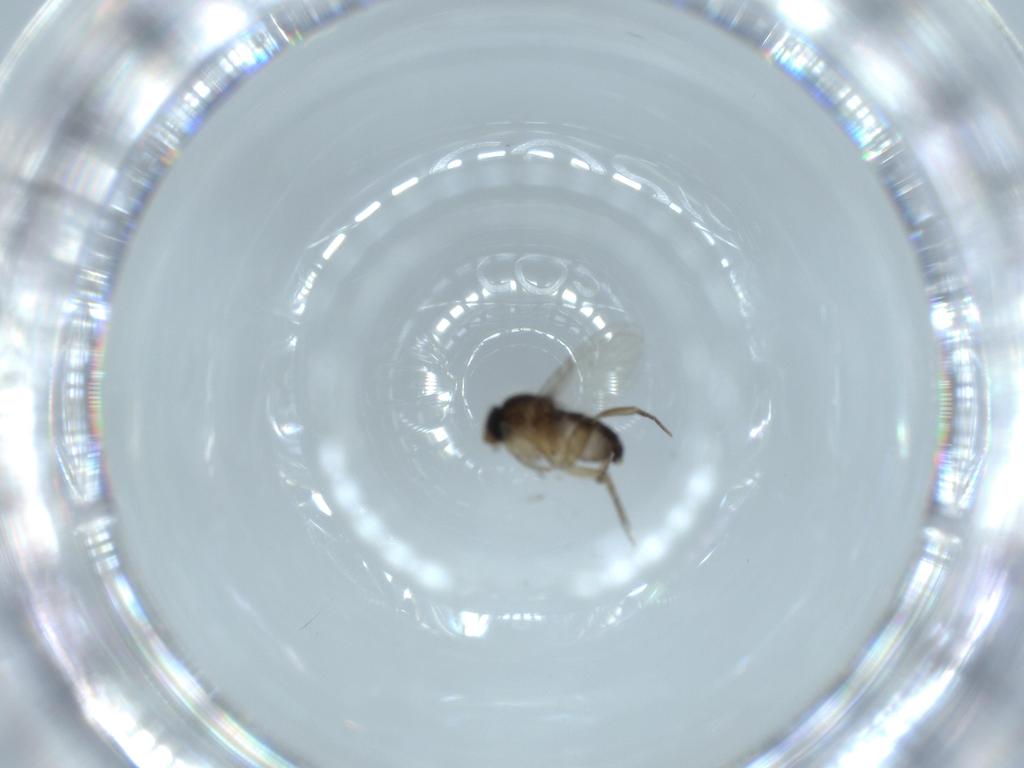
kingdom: Animalia
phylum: Arthropoda
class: Insecta
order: Diptera
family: Phoridae
